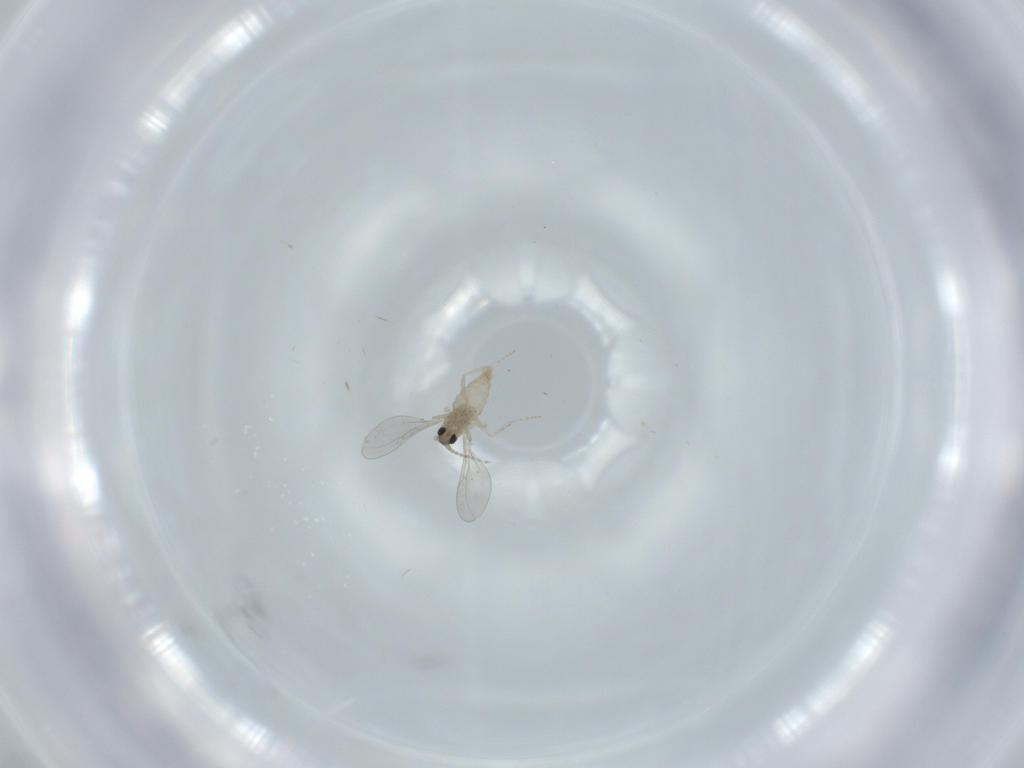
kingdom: Animalia
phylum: Arthropoda
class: Insecta
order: Diptera
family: Cecidomyiidae
